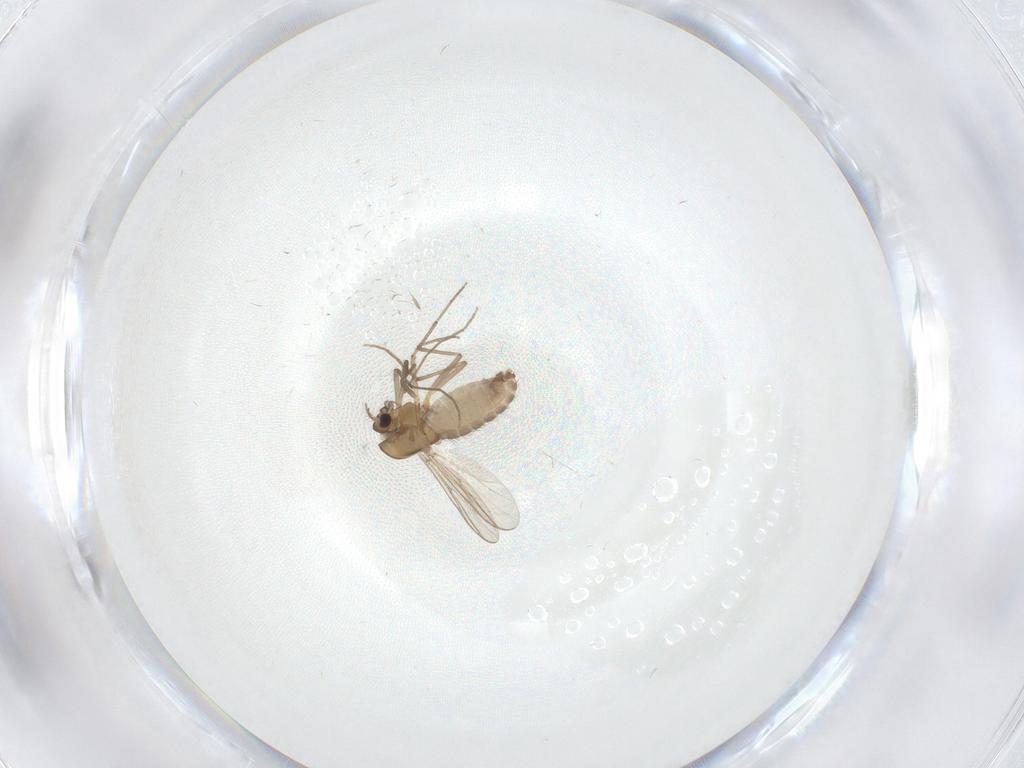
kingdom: Animalia
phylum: Arthropoda
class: Insecta
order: Diptera
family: Chironomidae
